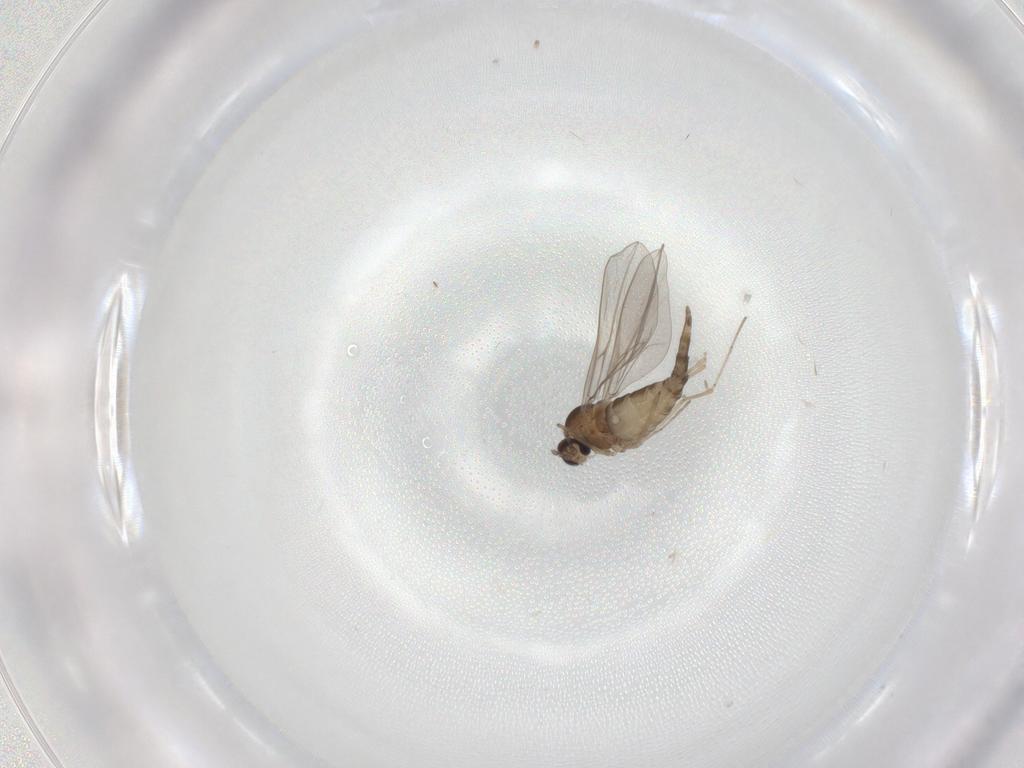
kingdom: Animalia
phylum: Arthropoda
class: Insecta
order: Diptera
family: Cecidomyiidae
